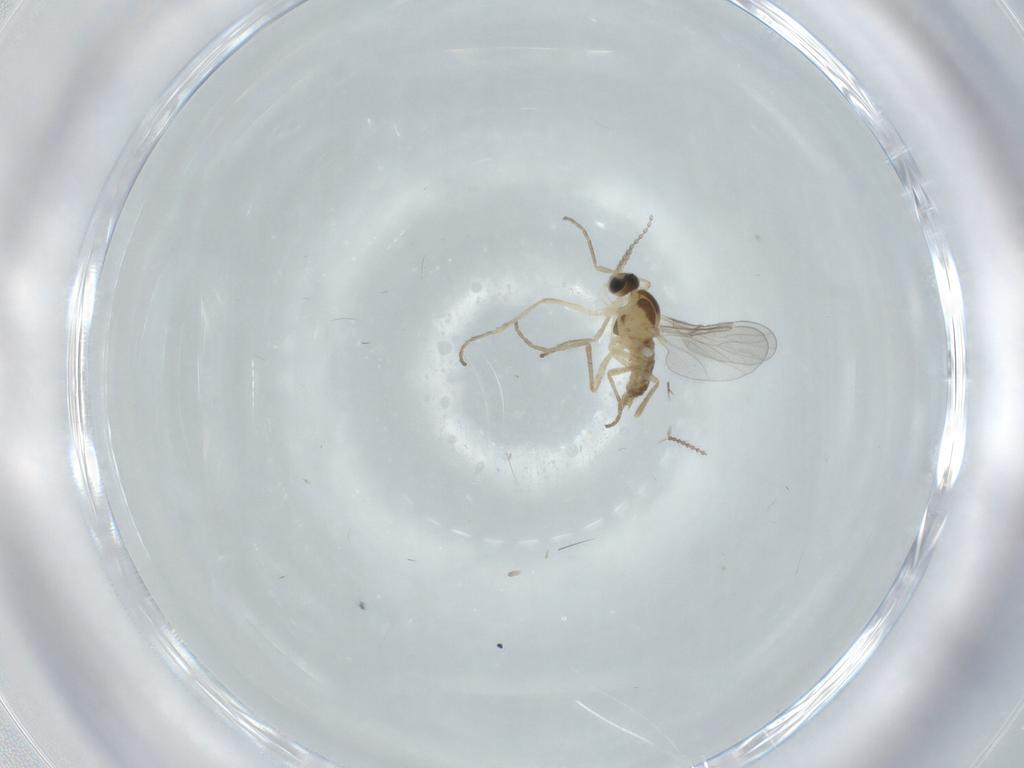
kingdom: Animalia
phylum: Arthropoda
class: Insecta
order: Diptera
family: Cecidomyiidae
